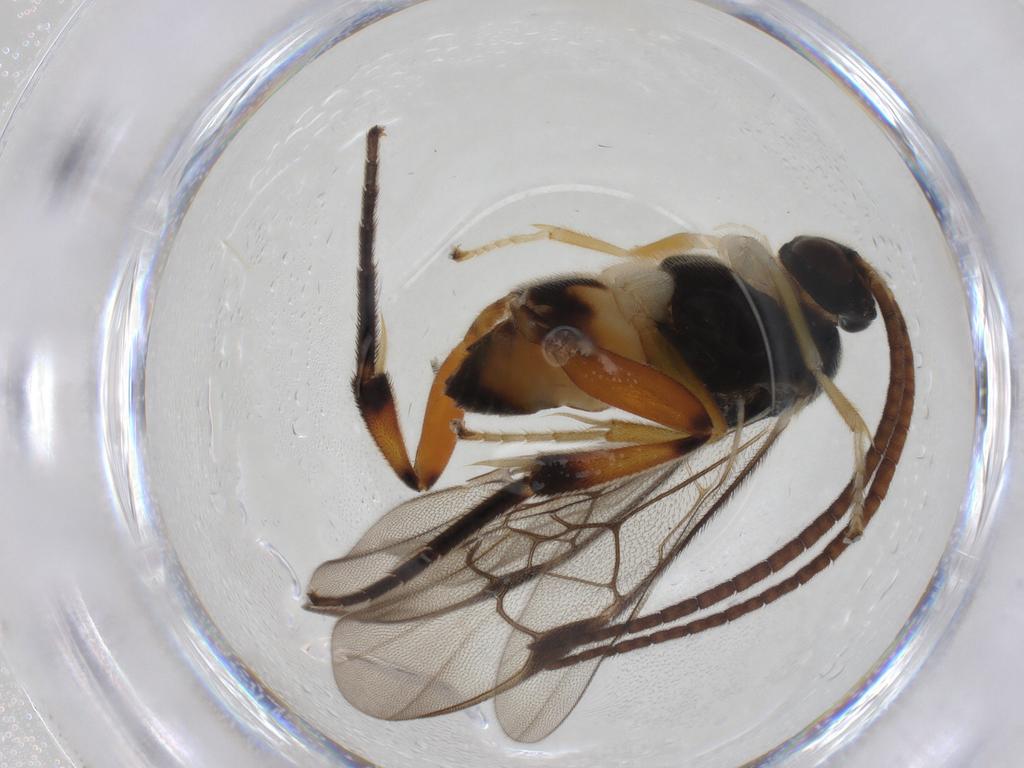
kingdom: Animalia
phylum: Arthropoda
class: Insecta
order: Hymenoptera
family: Braconidae
